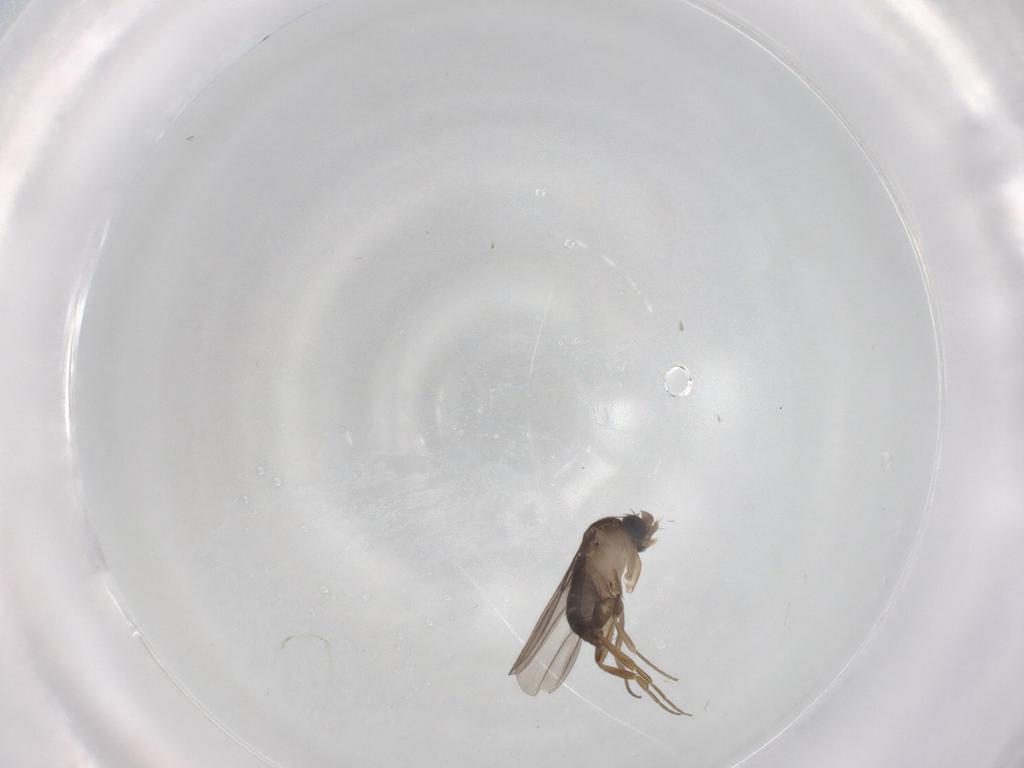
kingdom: Animalia
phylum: Arthropoda
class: Insecta
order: Diptera
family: Phoridae
